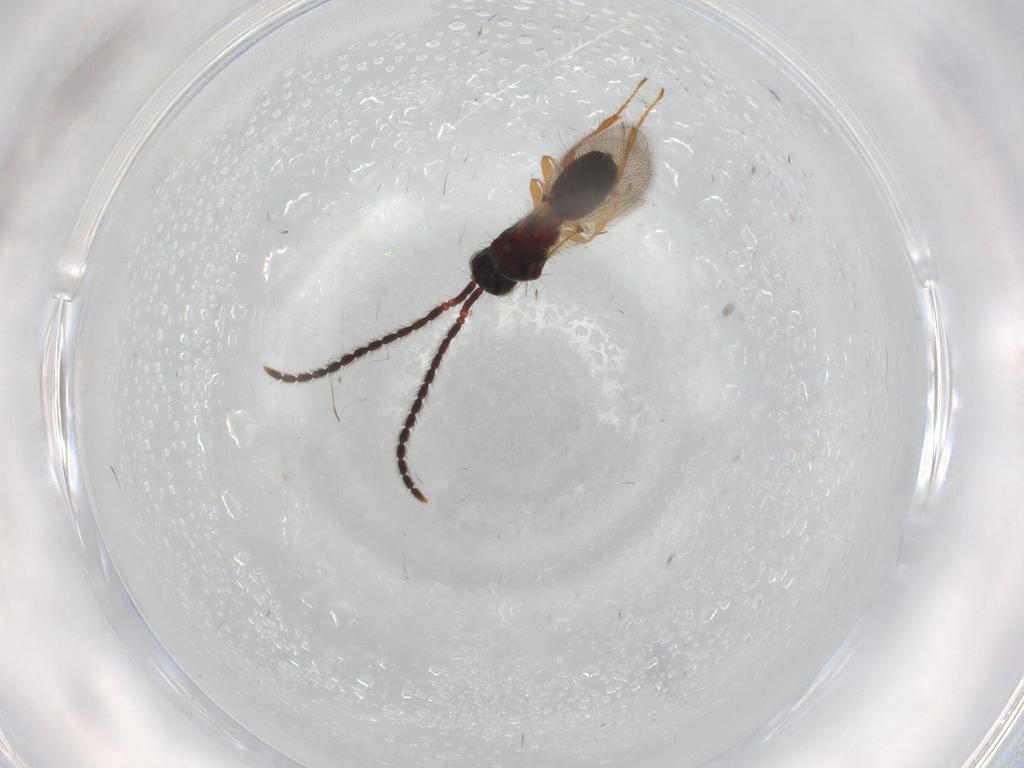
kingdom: Animalia
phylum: Arthropoda
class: Insecta
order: Hymenoptera
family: Diapriidae
